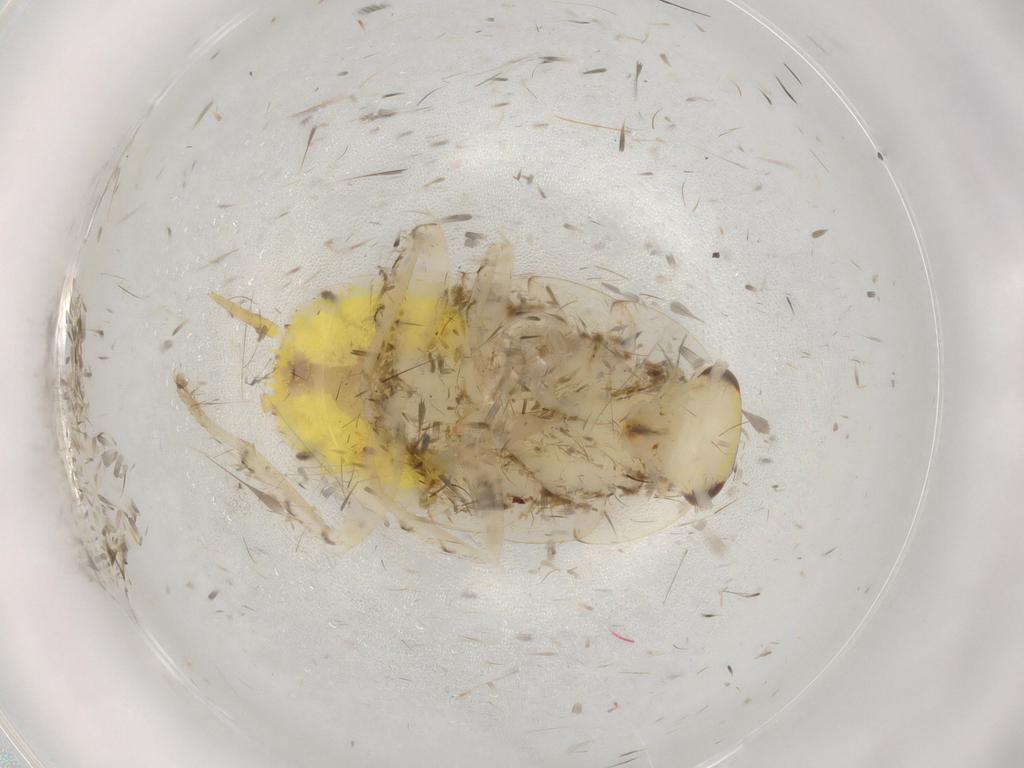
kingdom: Animalia
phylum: Arthropoda
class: Insecta
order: Blattodea
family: Ectobiidae
